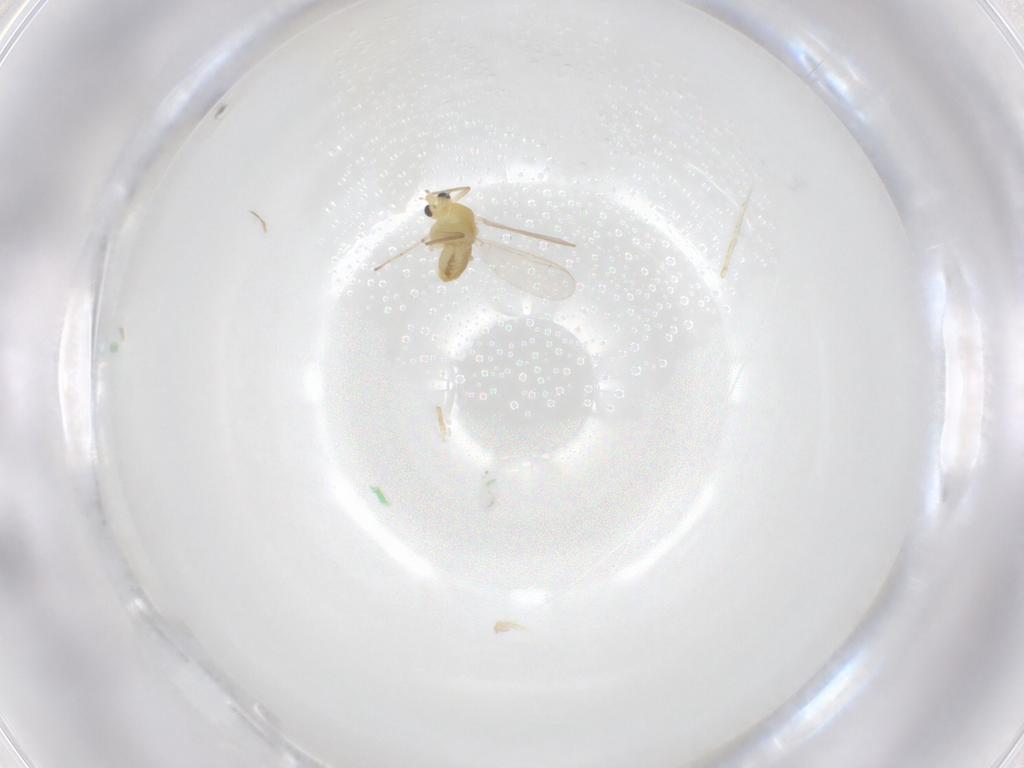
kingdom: Animalia
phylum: Arthropoda
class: Insecta
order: Diptera
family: Chironomidae
